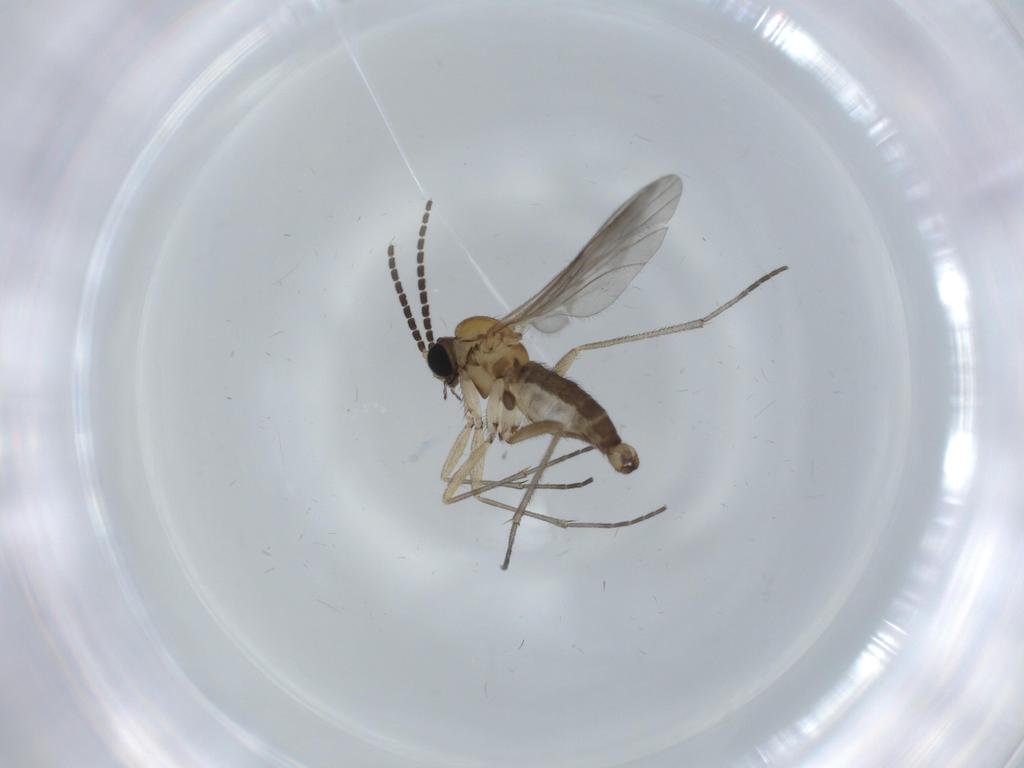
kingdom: Animalia
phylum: Arthropoda
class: Insecta
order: Diptera
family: Sciaridae
